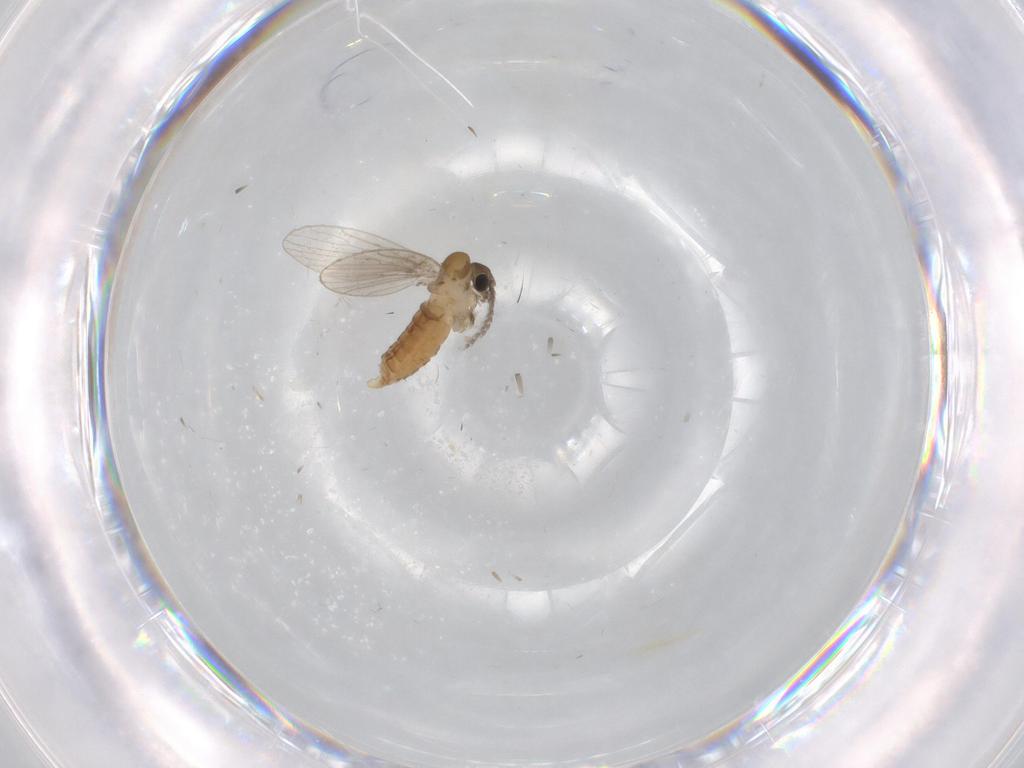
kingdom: Animalia
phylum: Arthropoda
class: Insecta
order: Diptera
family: Psychodidae
